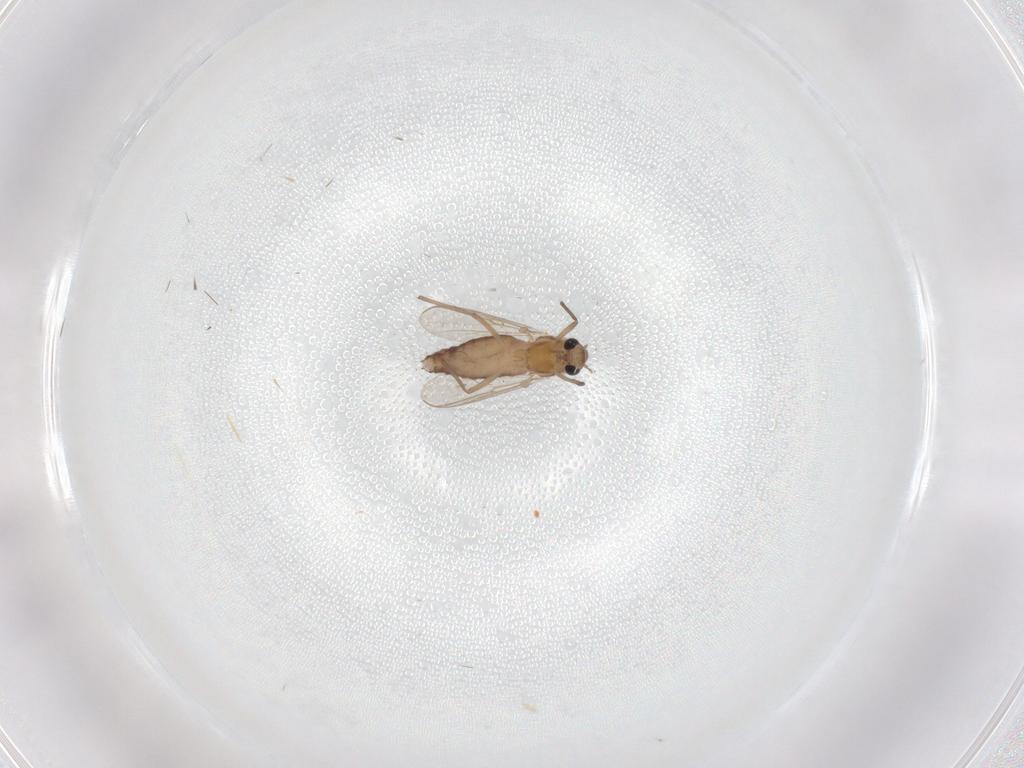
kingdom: Animalia
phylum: Arthropoda
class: Insecta
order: Diptera
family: Chironomidae
